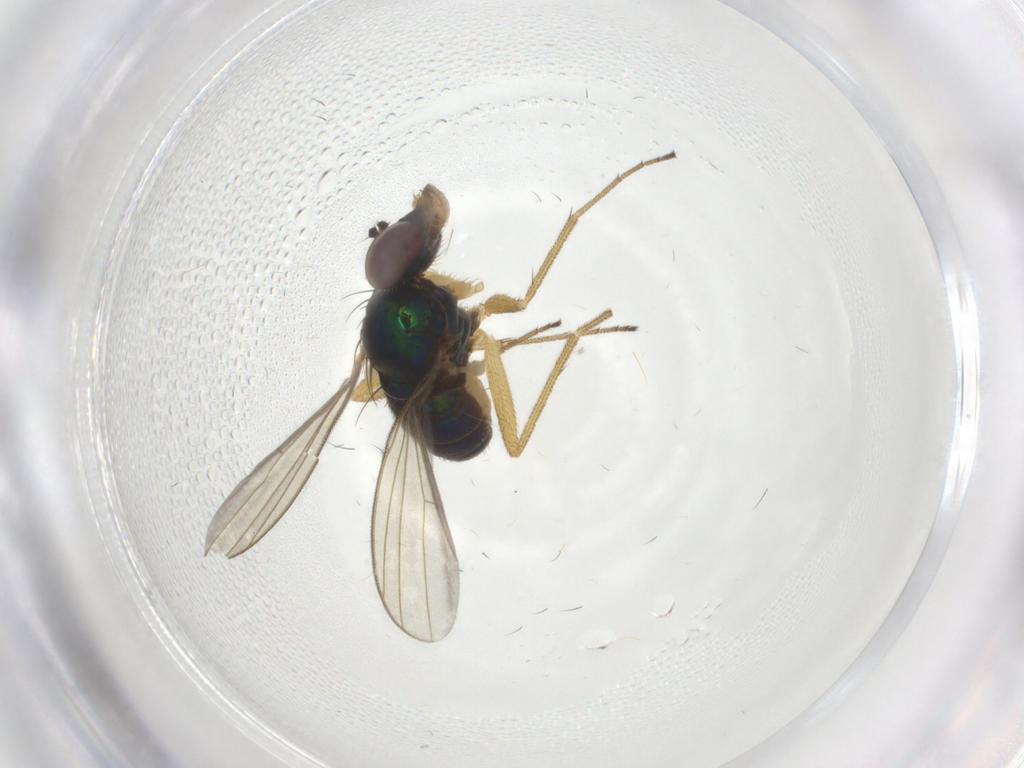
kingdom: Animalia
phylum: Arthropoda
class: Insecta
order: Diptera
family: Dolichopodidae
